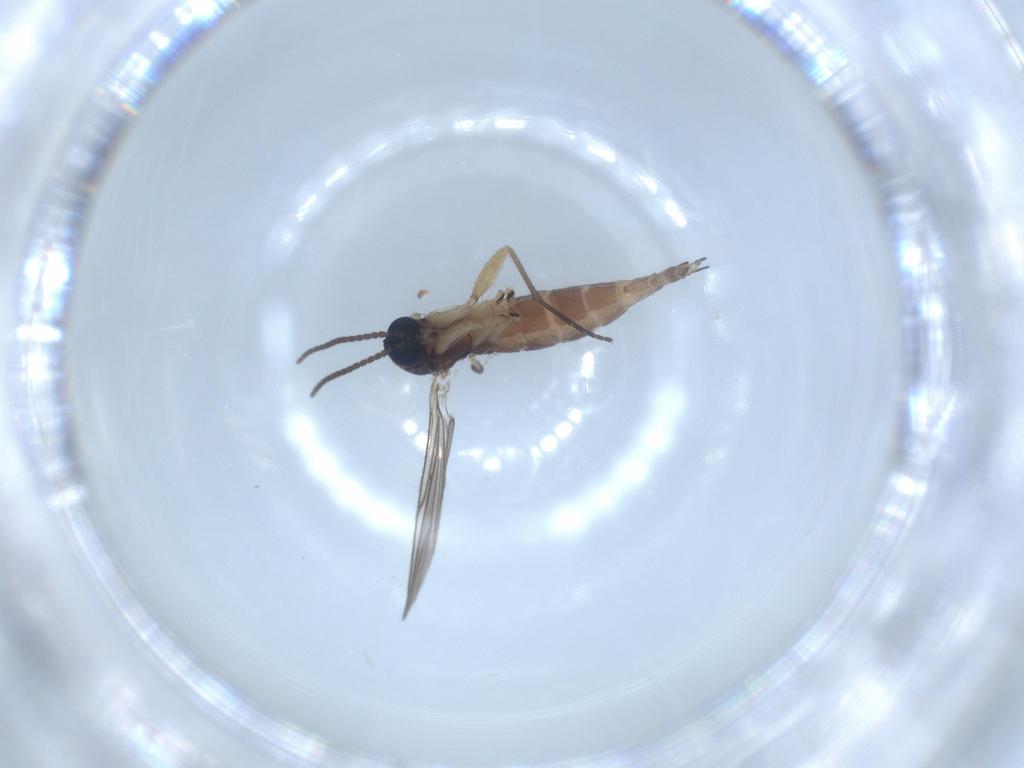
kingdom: Animalia
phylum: Arthropoda
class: Insecta
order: Diptera
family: Sciaridae
